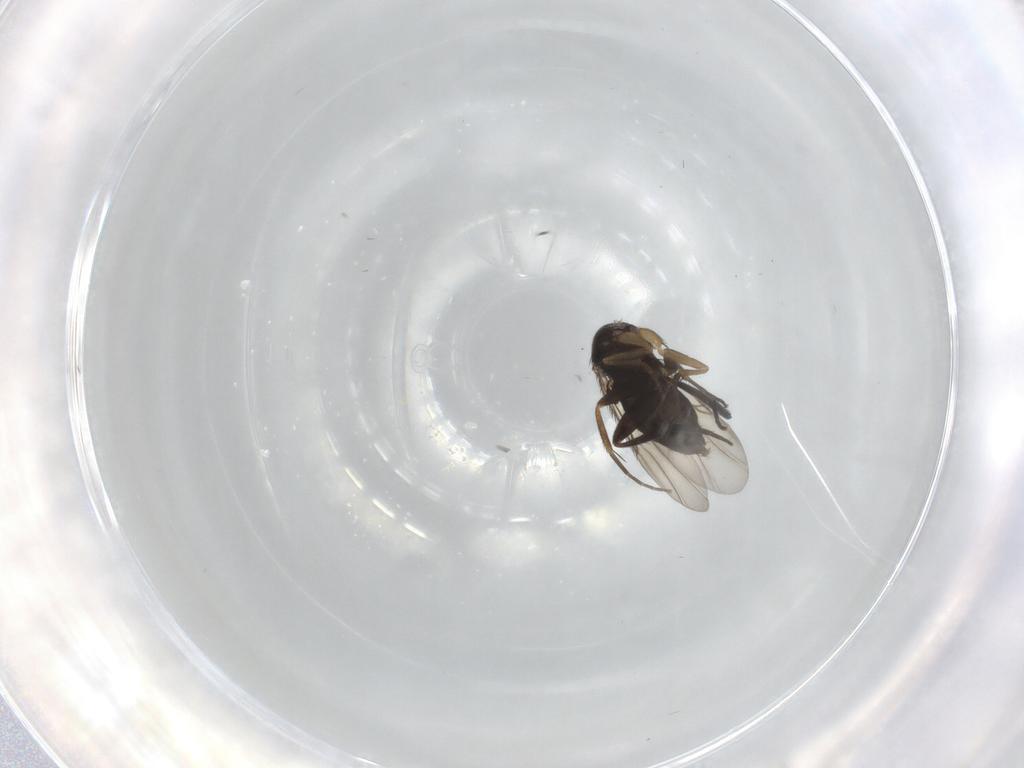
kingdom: Animalia
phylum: Arthropoda
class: Insecta
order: Diptera
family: Phoridae
